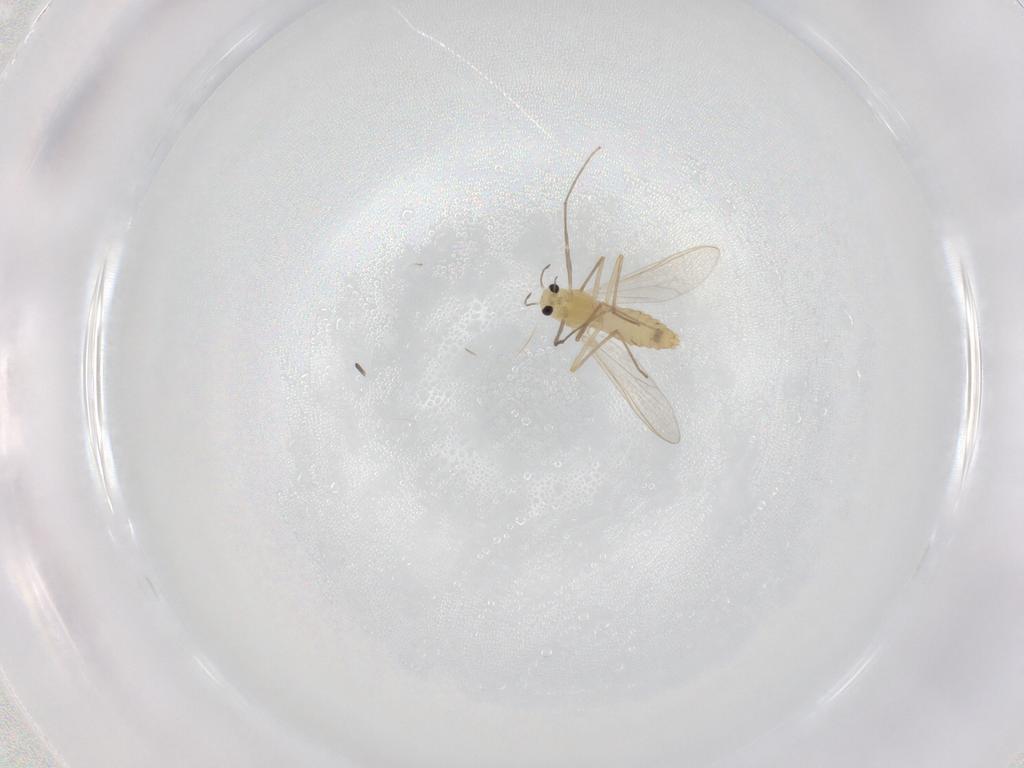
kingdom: Animalia
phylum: Arthropoda
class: Insecta
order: Diptera
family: Chironomidae
